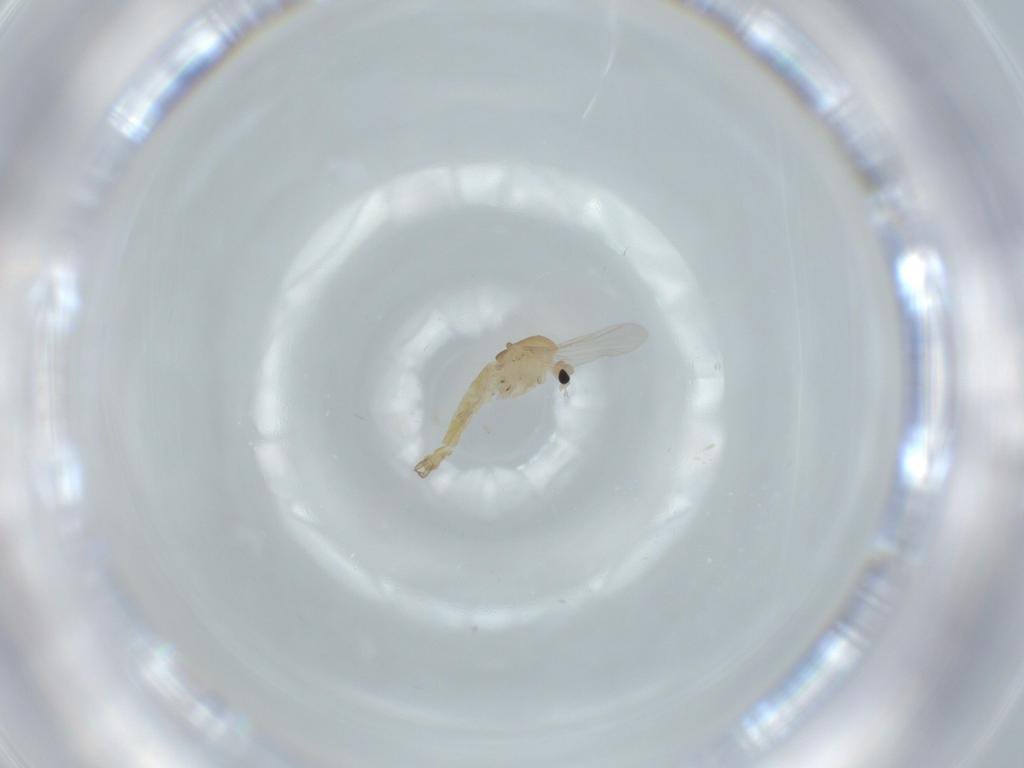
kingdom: Animalia
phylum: Arthropoda
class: Insecta
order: Diptera
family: Chironomidae
